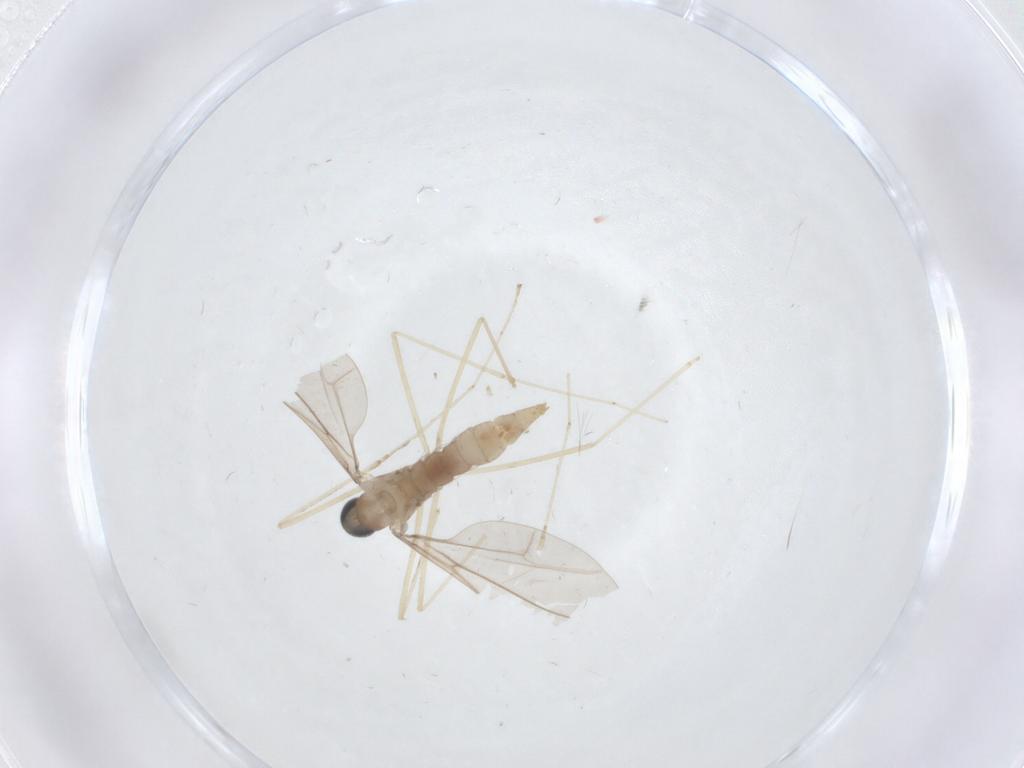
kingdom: Animalia
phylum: Arthropoda
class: Insecta
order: Diptera
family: Cecidomyiidae
